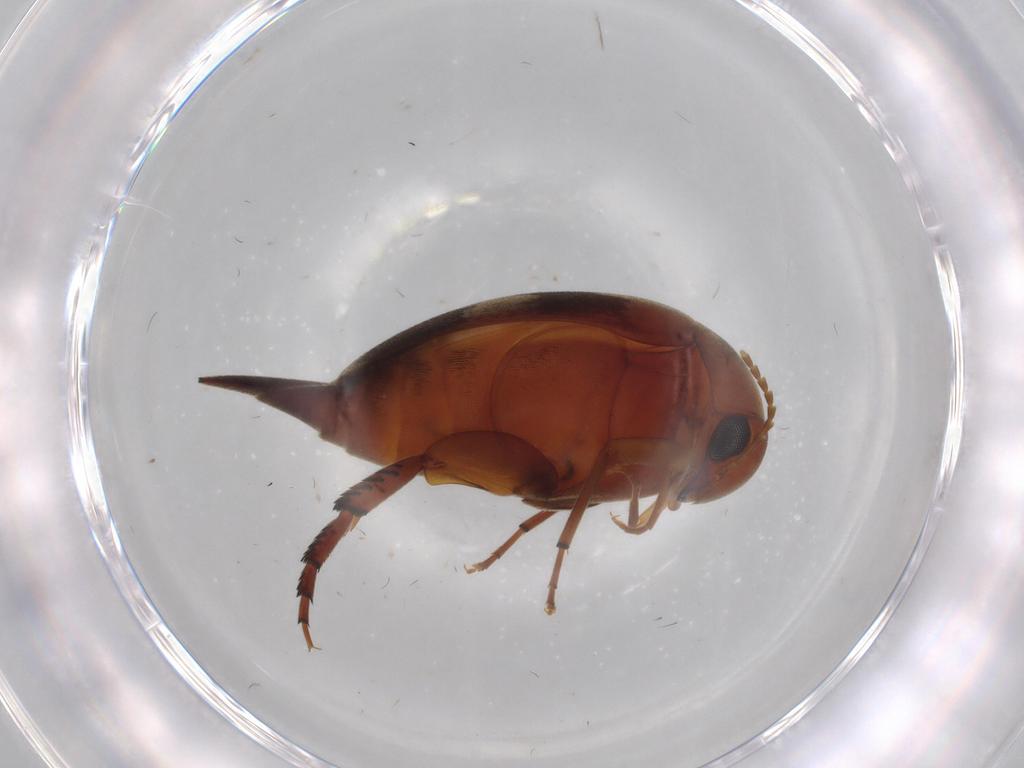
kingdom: Animalia
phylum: Arthropoda
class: Insecta
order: Coleoptera
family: Mordellidae
